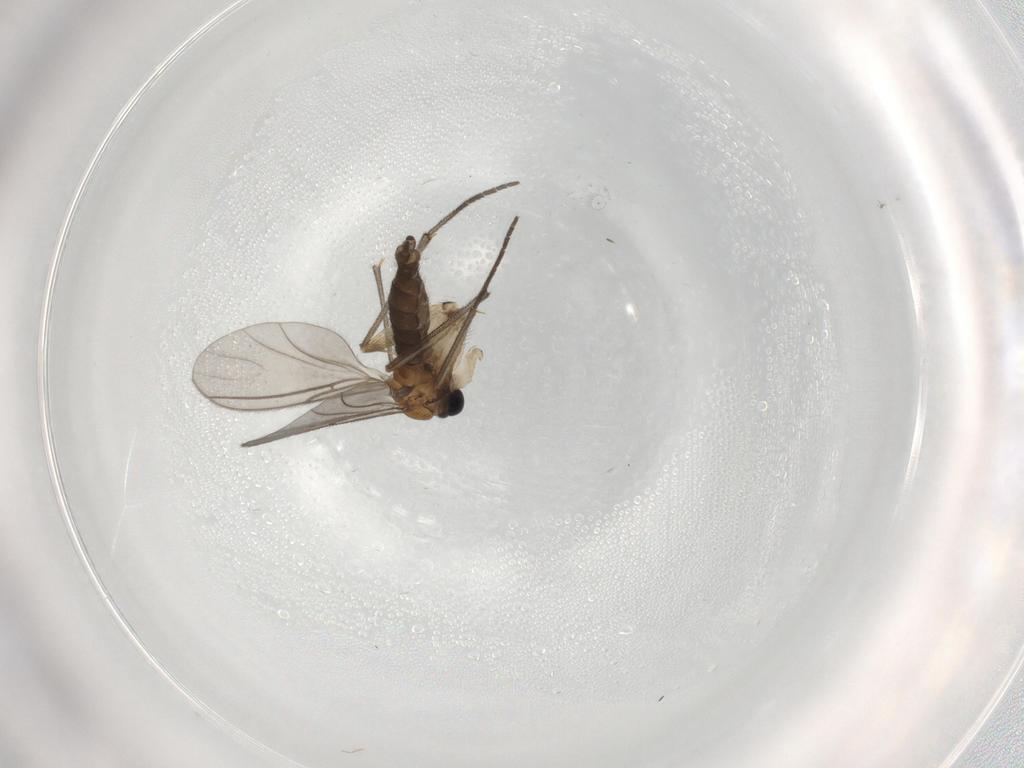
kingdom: Animalia
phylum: Arthropoda
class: Insecta
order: Diptera
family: Sciaridae
